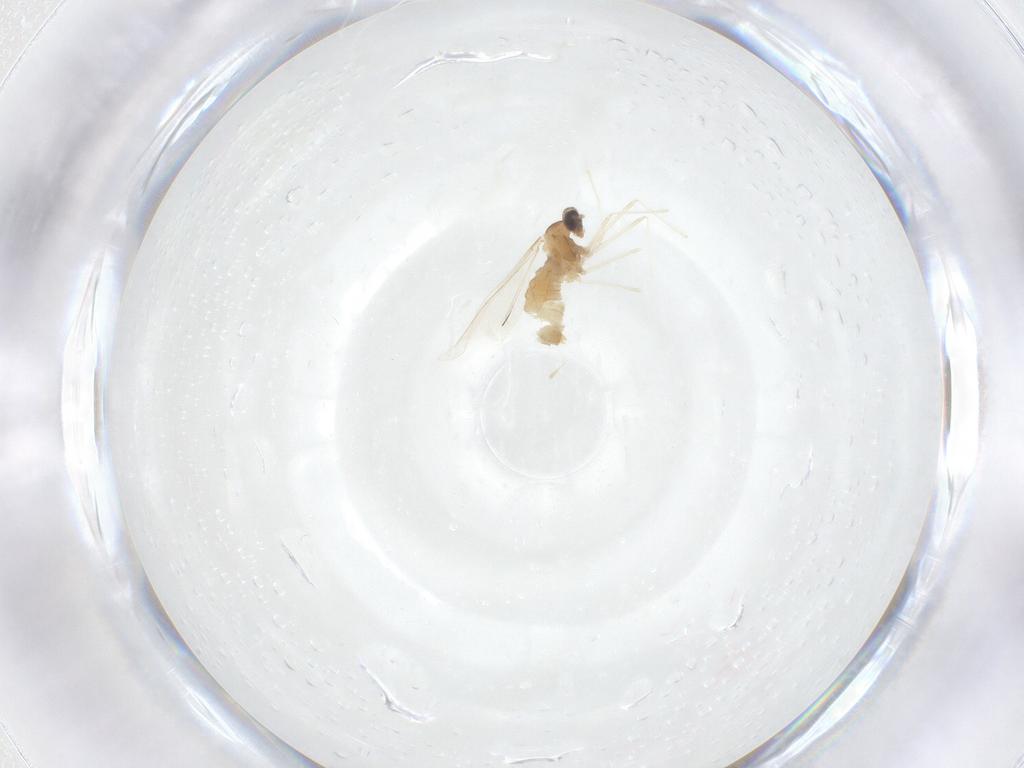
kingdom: Animalia
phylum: Arthropoda
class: Insecta
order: Diptera
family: Cecidomyiidae
